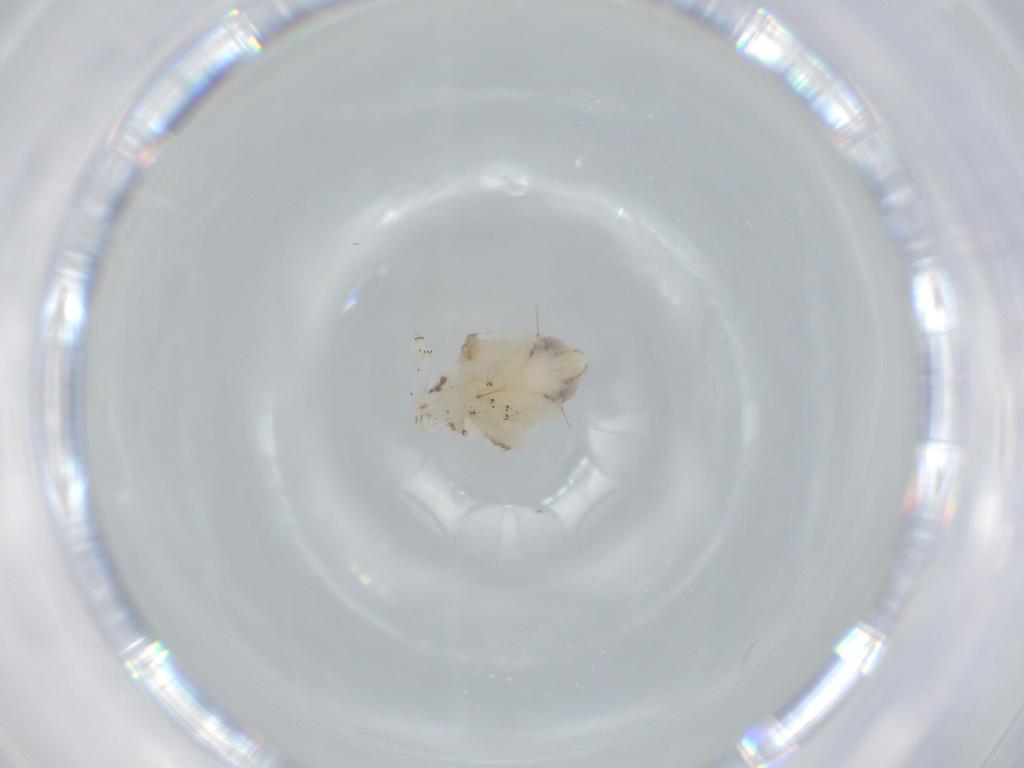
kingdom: Animalia
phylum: Arthropoda
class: Insecta
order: Hemiptera
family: Nogodinidae
